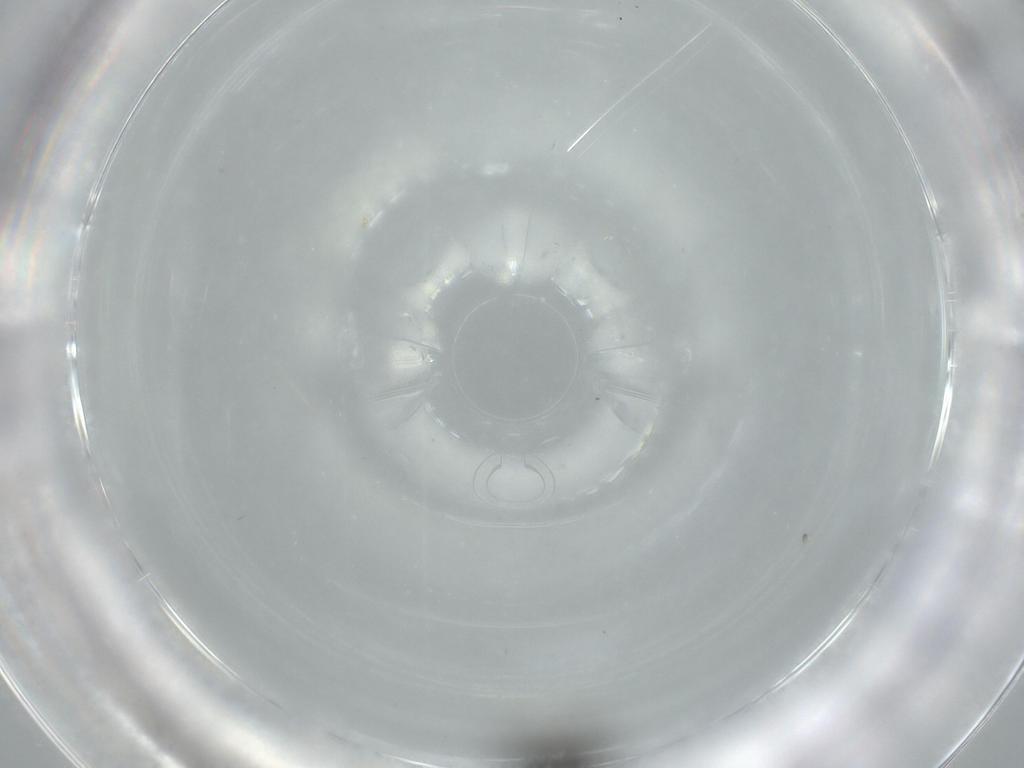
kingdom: Animalia
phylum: Arthropoda
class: Insecta
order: Hymenoptera
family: Scelionidae
